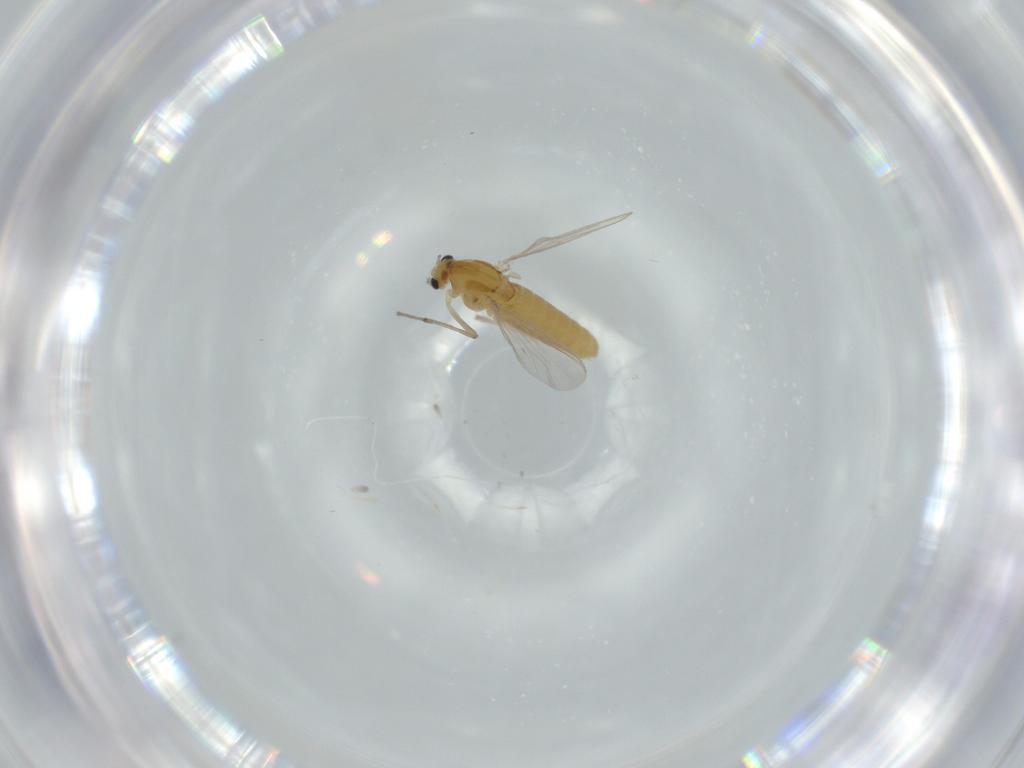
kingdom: Animalia
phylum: Arthropoda
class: Insecta
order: Diptera
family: Chironomidae
